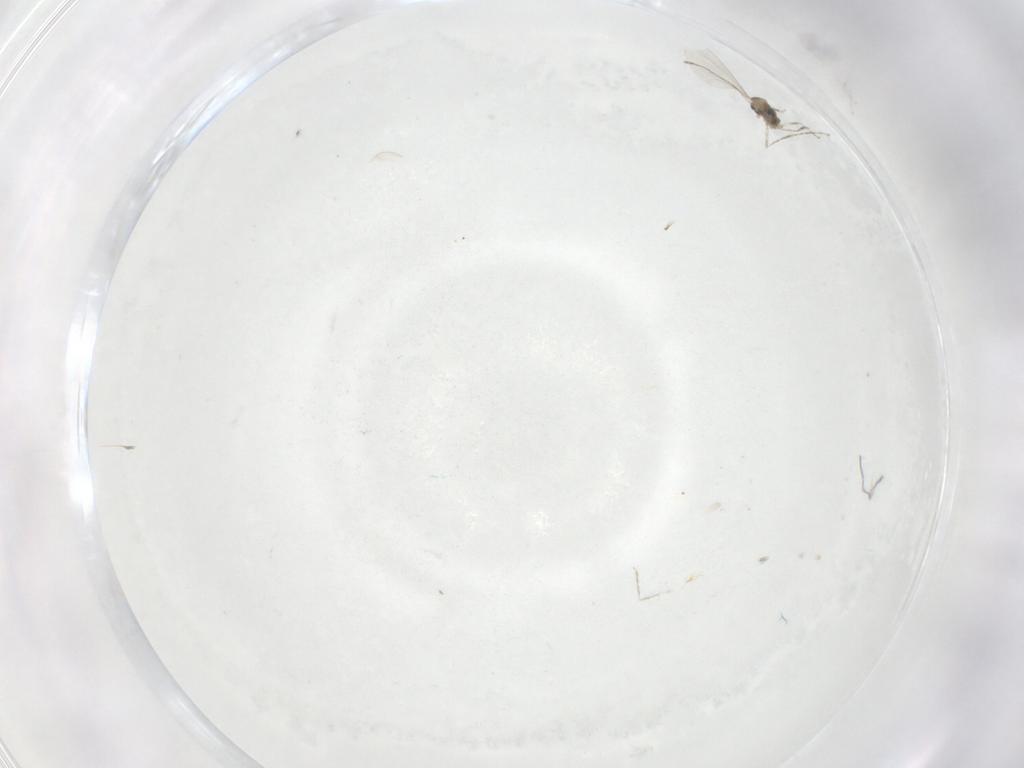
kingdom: Animalia
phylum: Arthropoda
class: Insecta
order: Diptera
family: Cecidomyiidae
